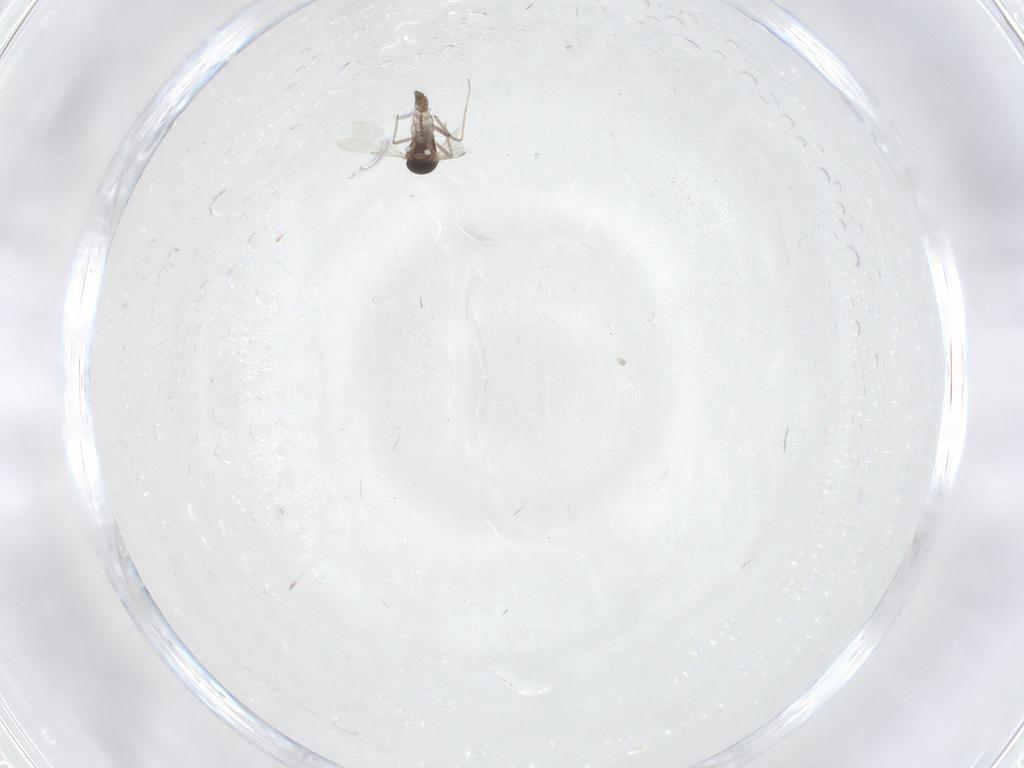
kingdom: Animalia
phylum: Arthropoda
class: Insecta
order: Diptera
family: Ceratopogonidae
